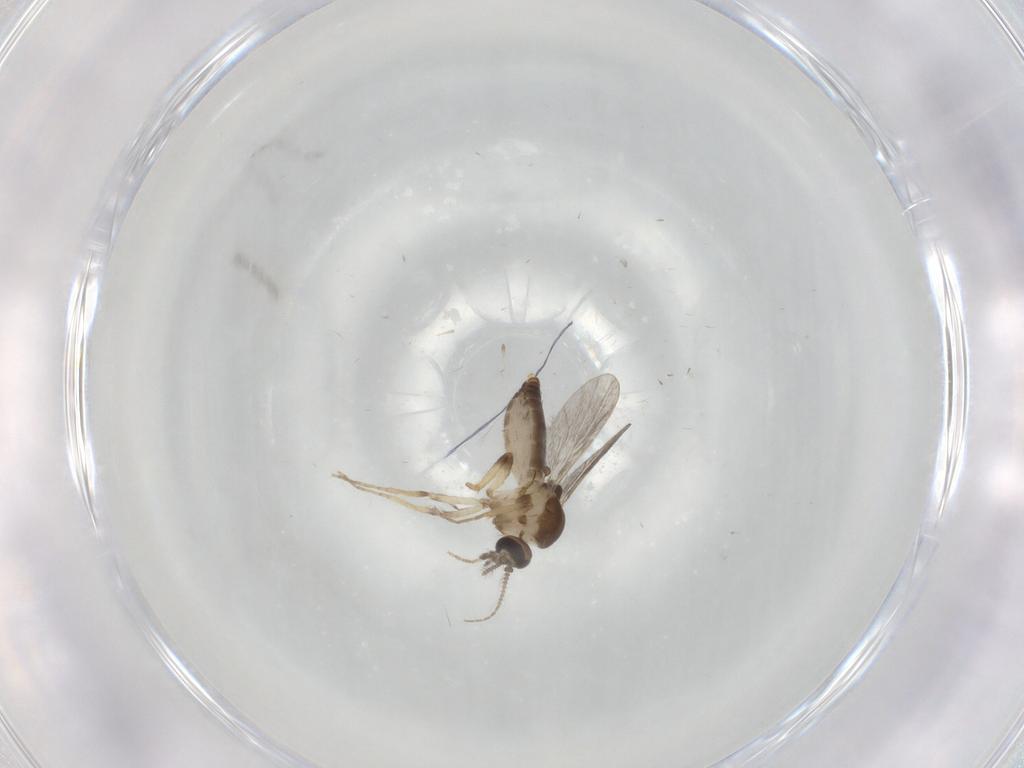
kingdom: Animalia
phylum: Arthropoda
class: Insecta
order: Diptera
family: Ceratopogonidae
